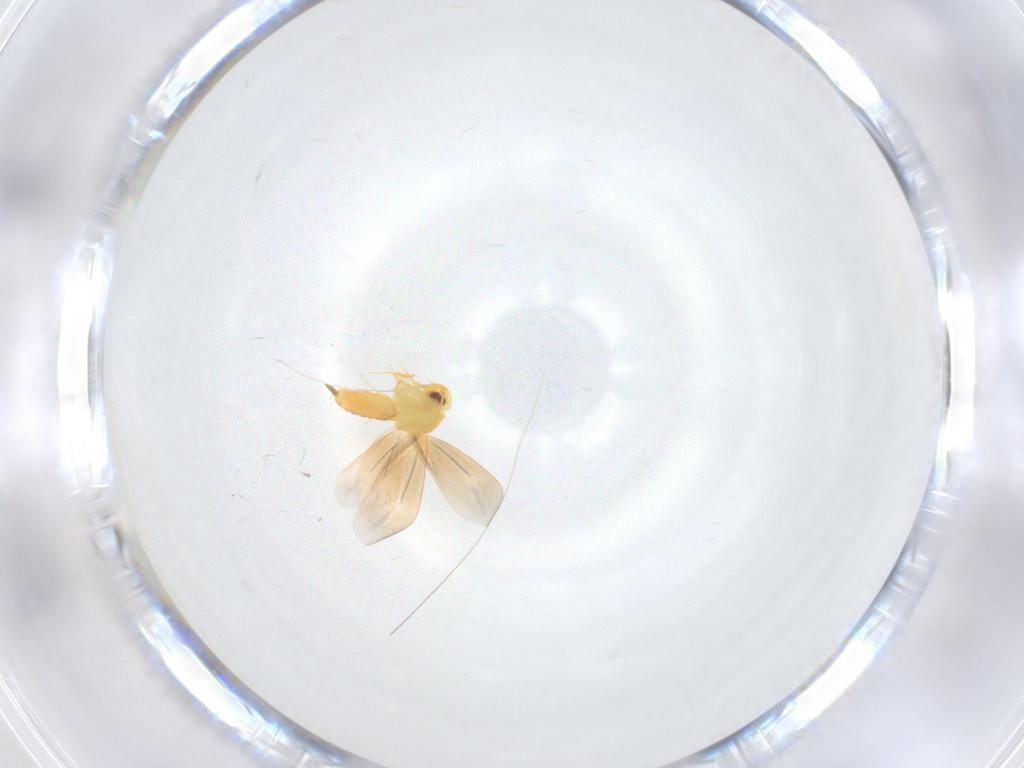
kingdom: Animalia
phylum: Arthropoda
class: Insecta
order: Hemiptera
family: Aleyrodidae
